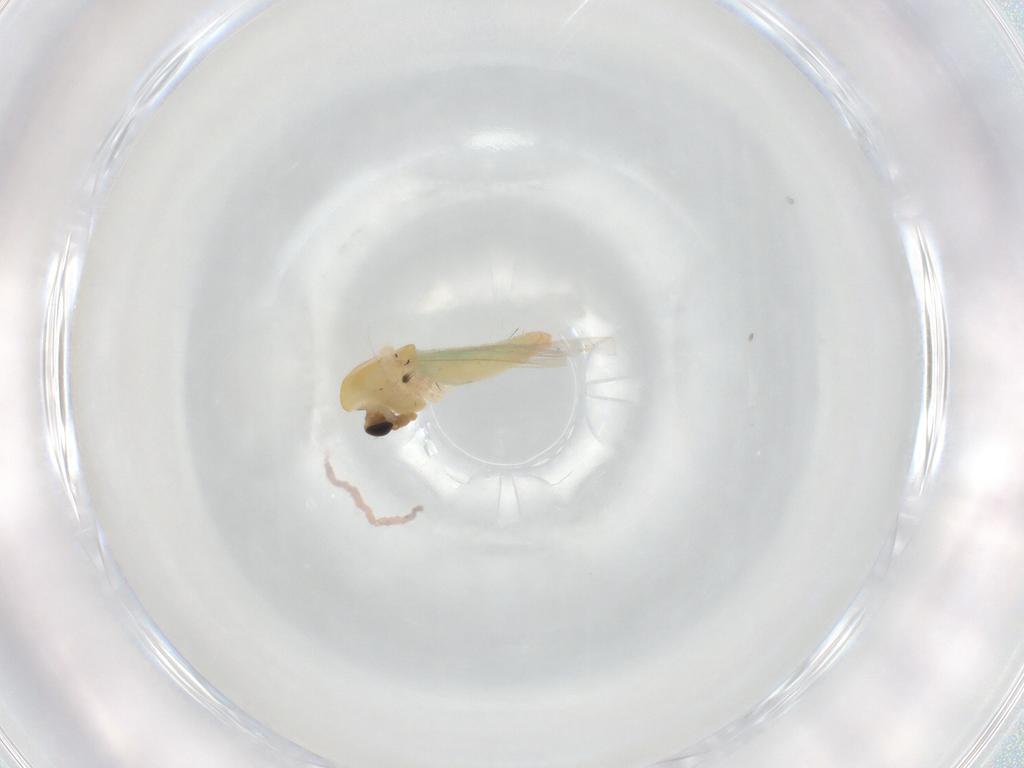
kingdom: Animalia
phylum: Arthropoda
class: Insecta
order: Diptera
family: Chironomidae
